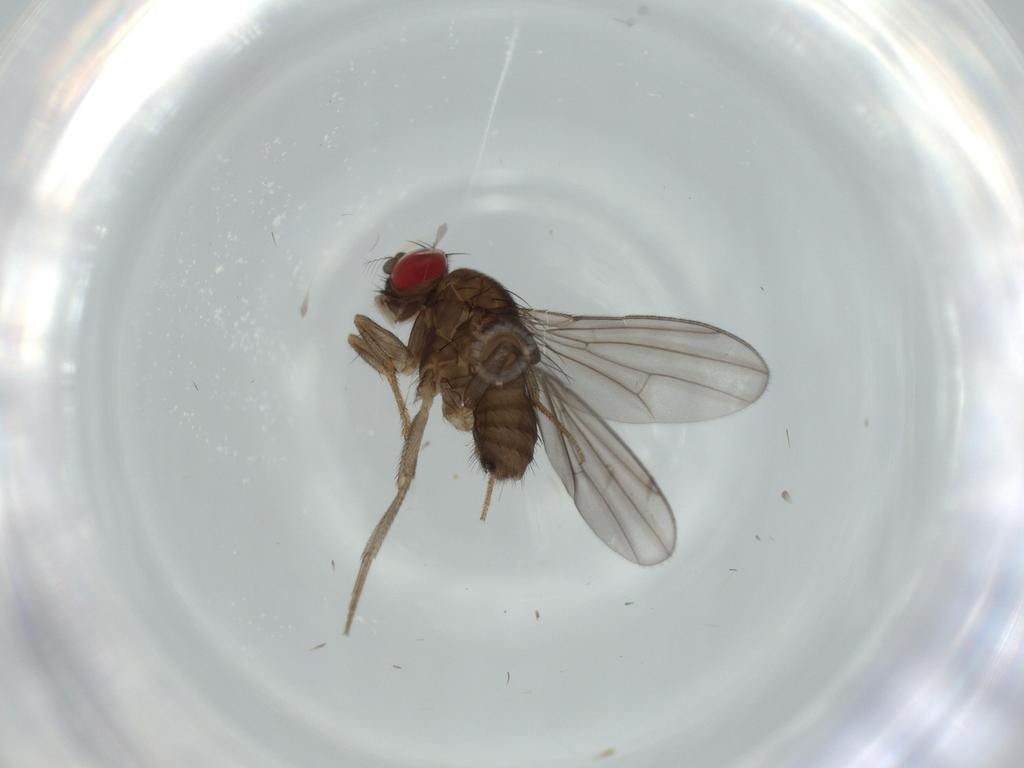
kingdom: Animalia
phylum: Arthropoda
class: Insecta
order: Diptera
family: Drosophilidae
